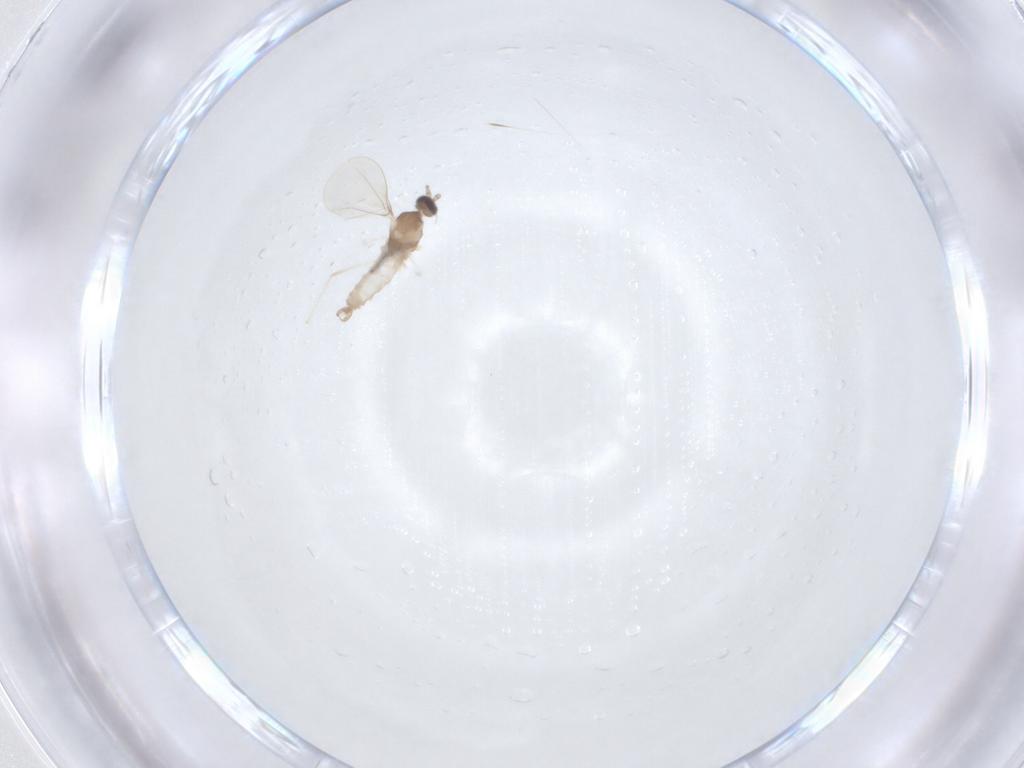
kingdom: Animalia
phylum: Arthropoda
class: Insecta
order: Diptera
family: Cecidomyiidae
